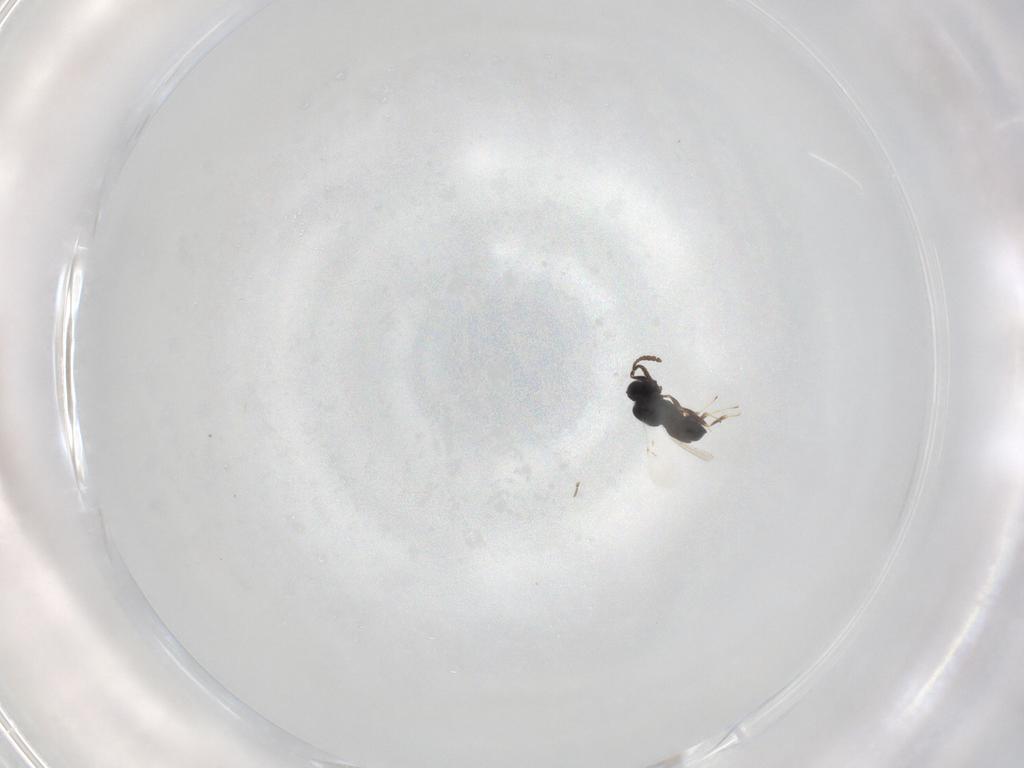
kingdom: Animalia
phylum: Arthropoda
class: Insecta
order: Hymenoptera
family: Scelionidae
